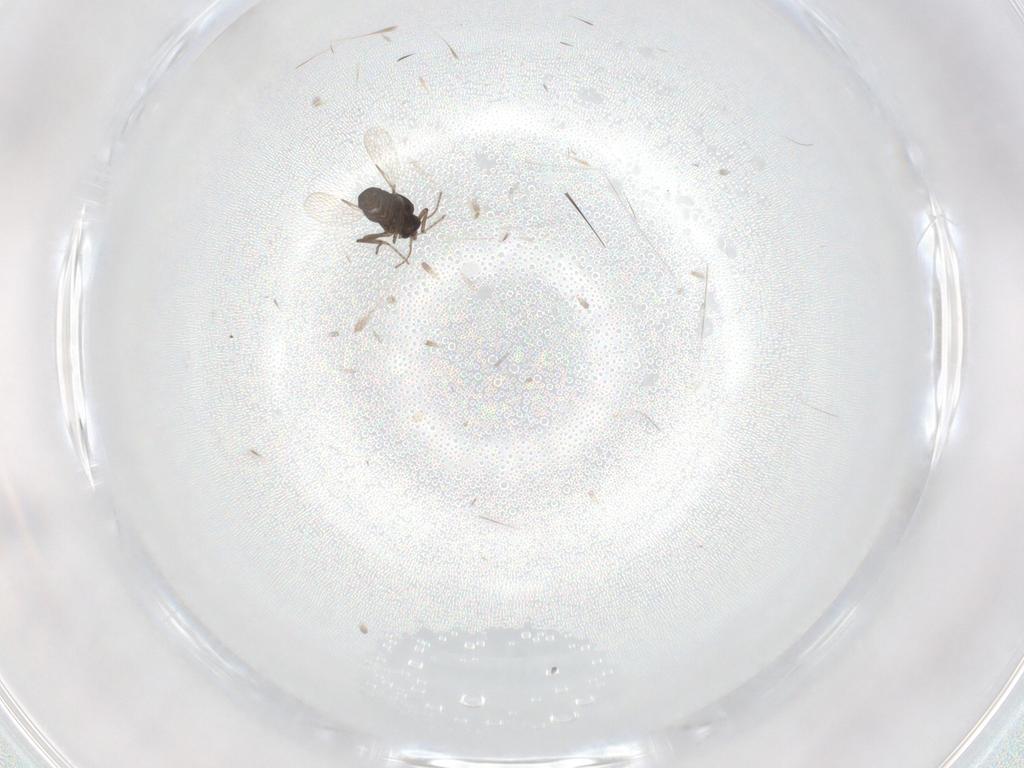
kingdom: Animalia
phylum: Arthropoda
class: Insecta
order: Diptera
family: Ceratopogonidae
